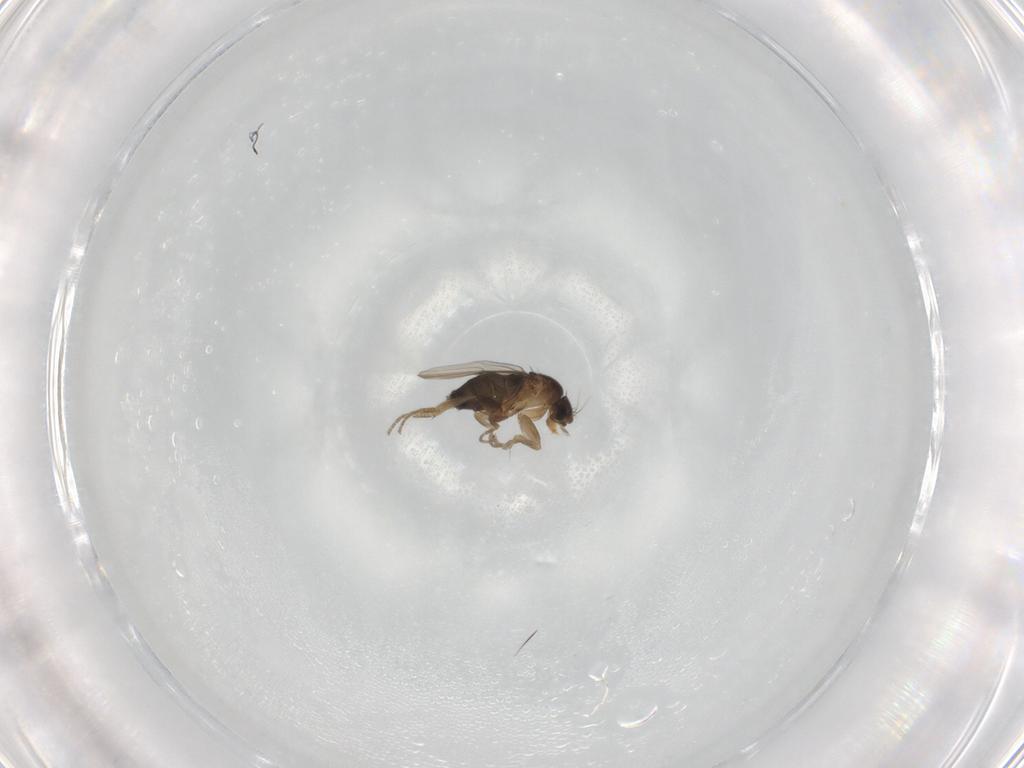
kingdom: Animalia
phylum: Arthropoda
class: Insecta
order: Diptera
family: Phoridae
